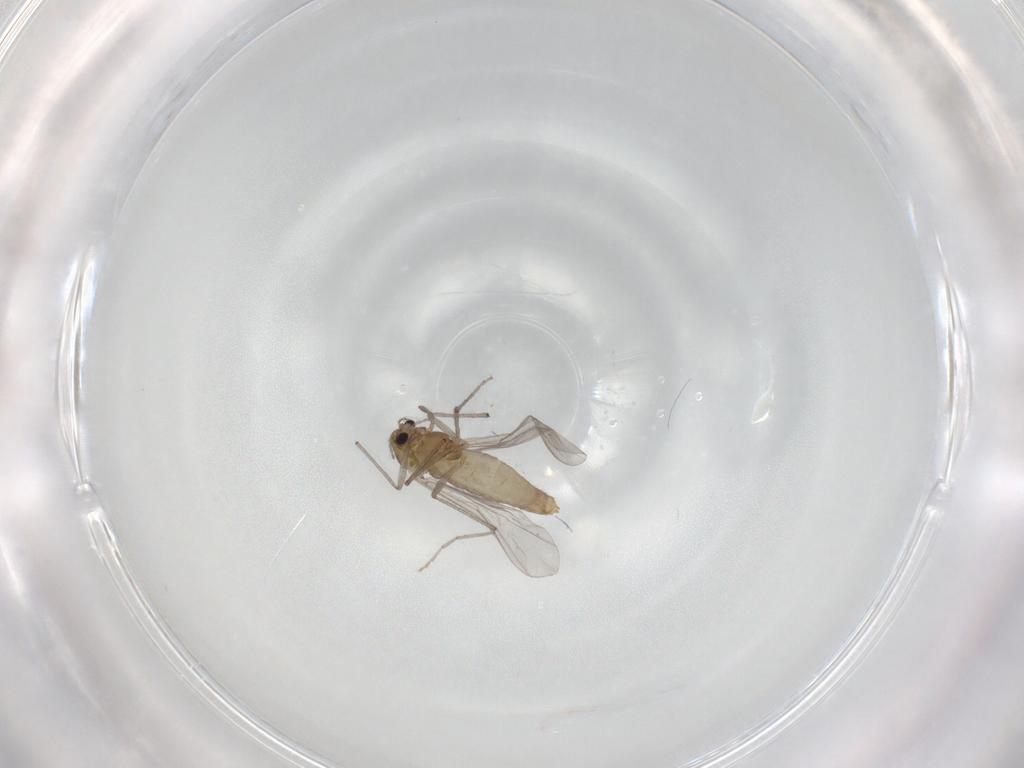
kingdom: Animalia
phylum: Arthropoda
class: Insecta
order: Diptera
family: Chironomidae
